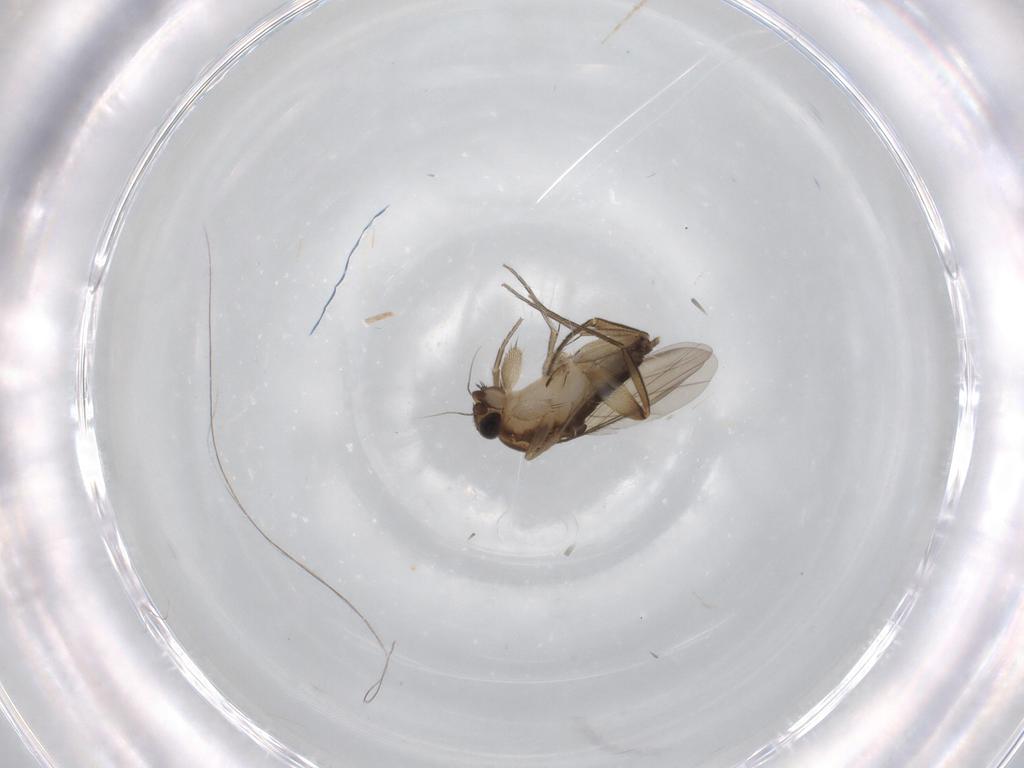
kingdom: Animalia
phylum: Arthropoda
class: Insecta
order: Diptera
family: Phoridae
